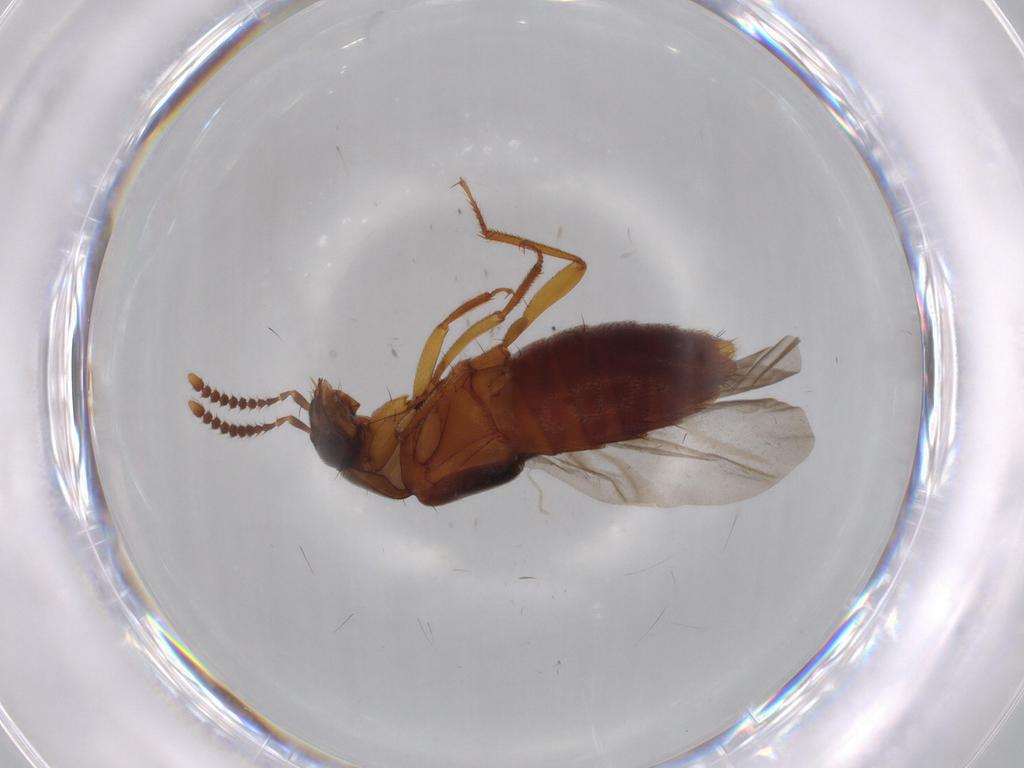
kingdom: Animalia
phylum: Arthropoda
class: Insecta
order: Coleoptera
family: Staphylinidae
